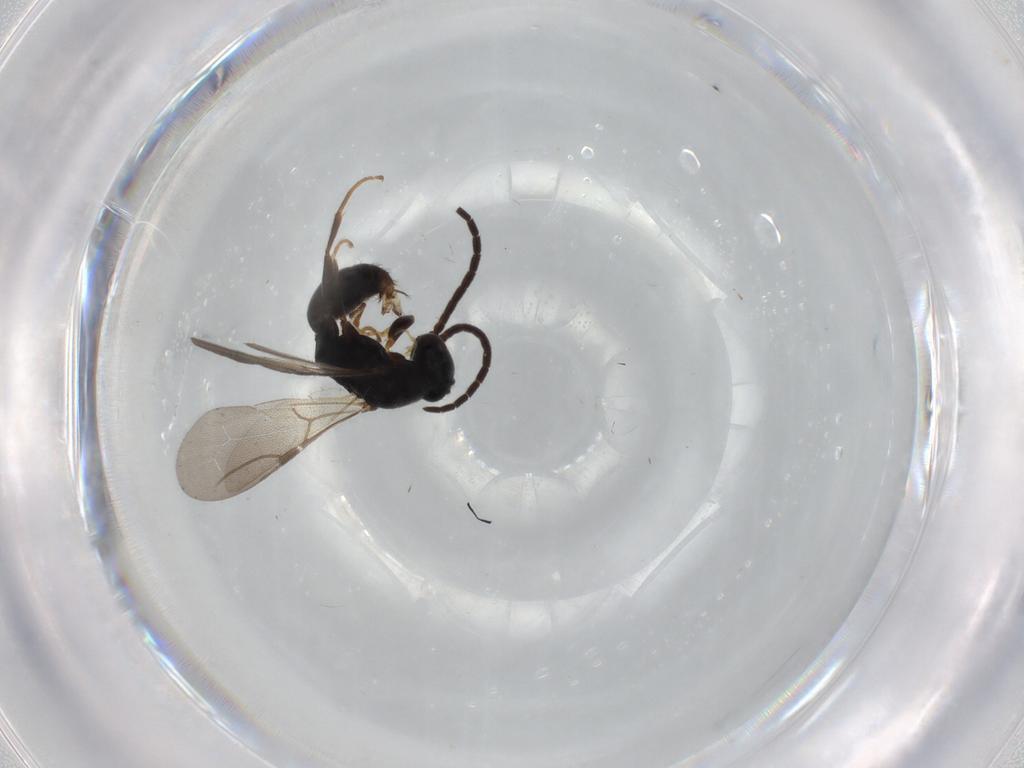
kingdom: Animalia
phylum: Arthropoda
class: Insecta
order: Hymenoptera
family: Bethylidae
